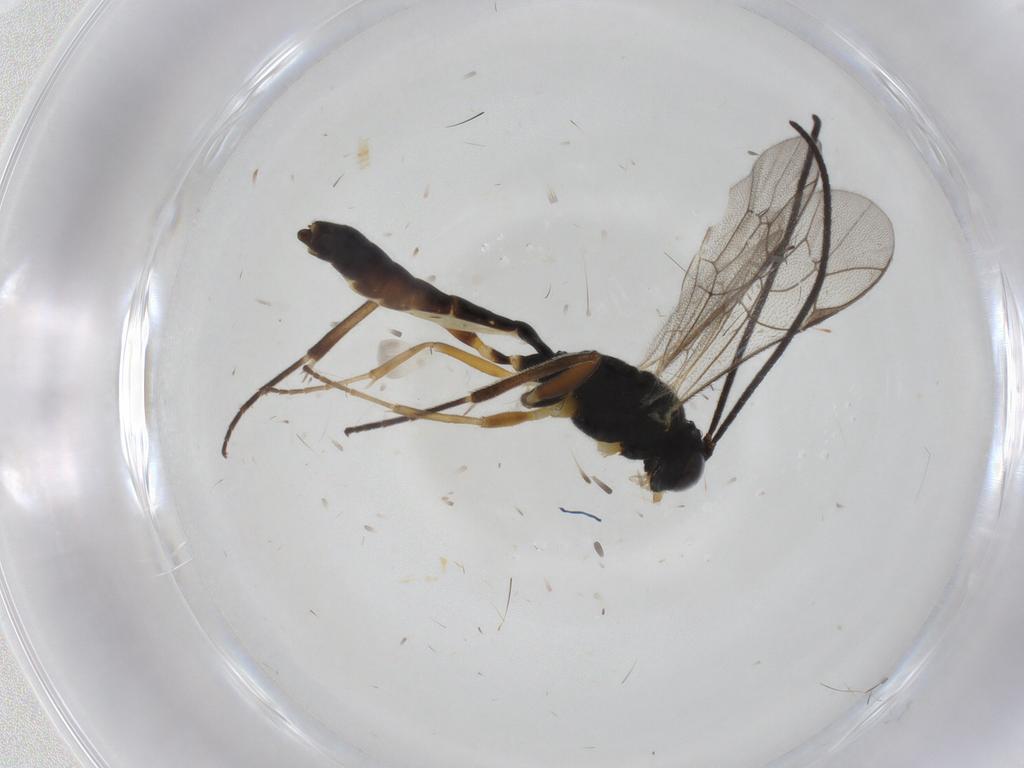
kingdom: Animalia
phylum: Arthropoda
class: Insecta
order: Hymenoptera
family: Ichneumonidae
